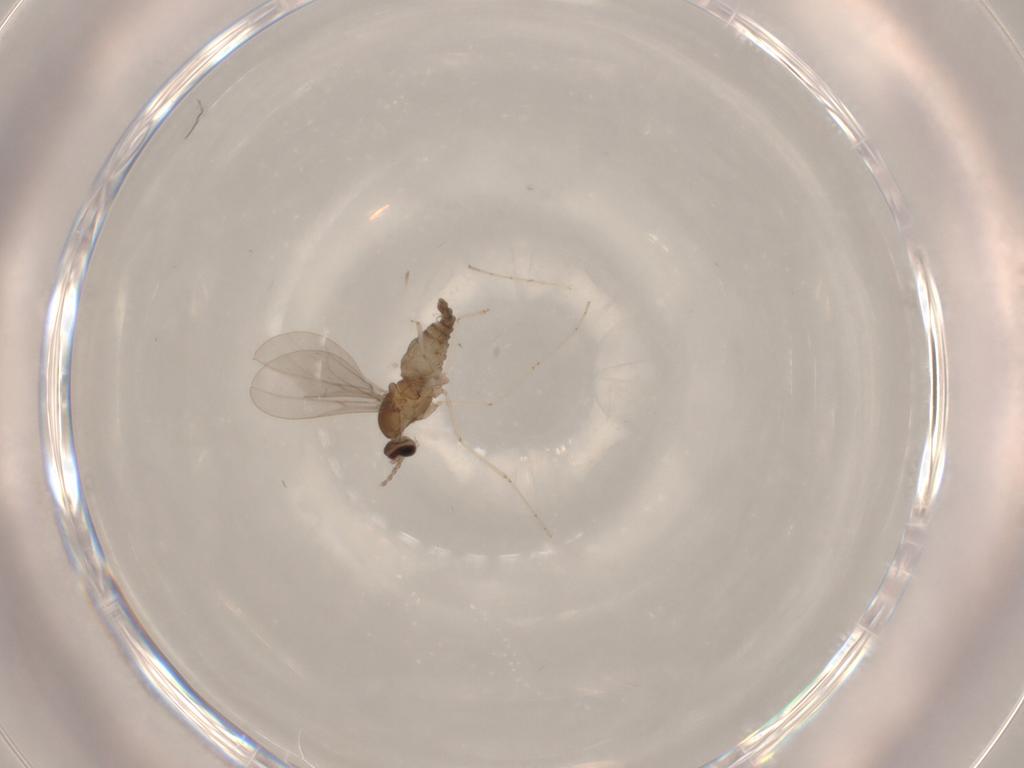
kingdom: Animalia
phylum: Arthropoda
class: Insecta
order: Diptera
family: Cecidomyiidae
